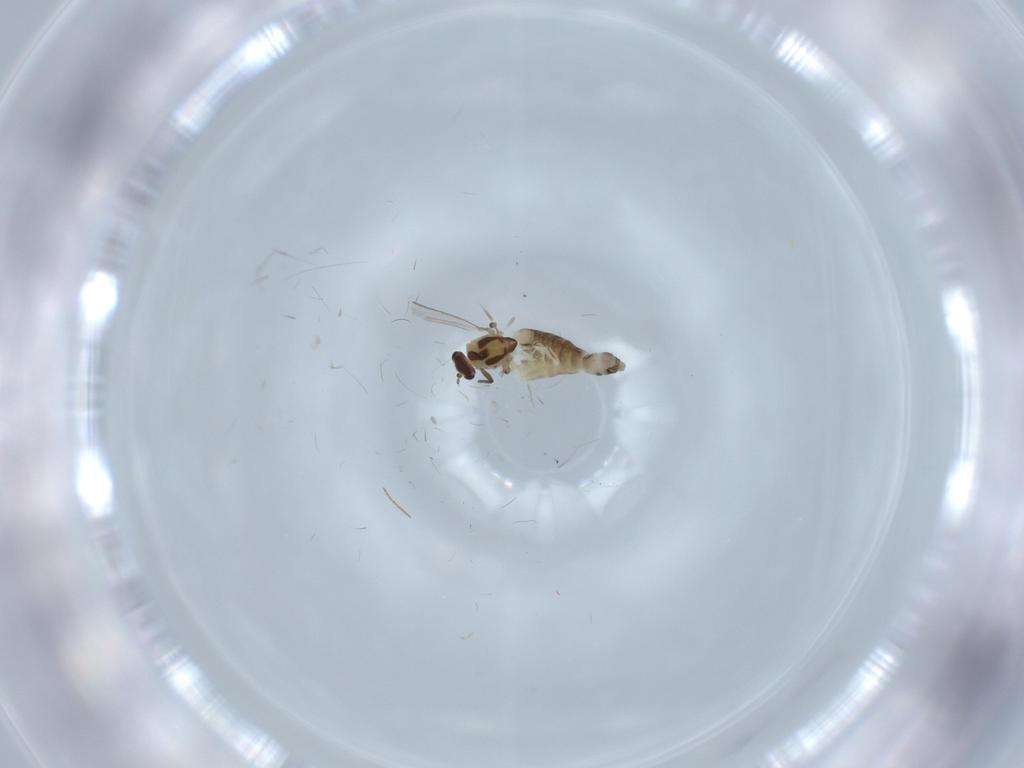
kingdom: Animalia
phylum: Arthropoda
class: Insecta
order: Diptera
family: Chironomidae
